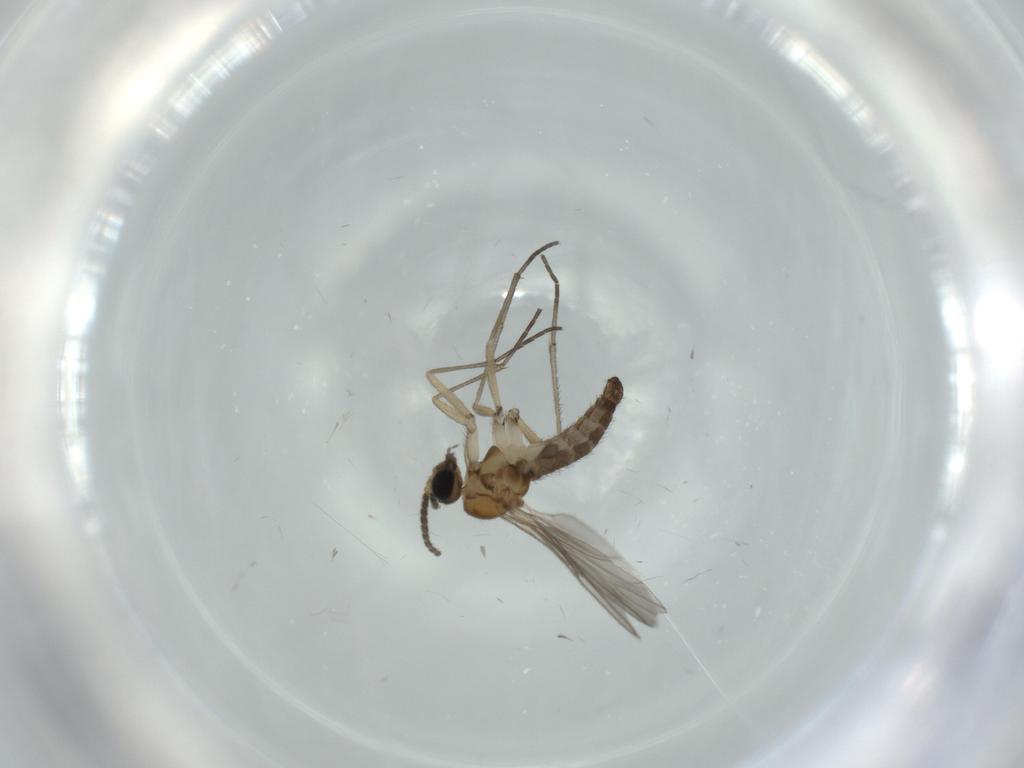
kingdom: Animalia
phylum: Arthropoda
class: Insecta
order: Diptera
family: Sciaridae
